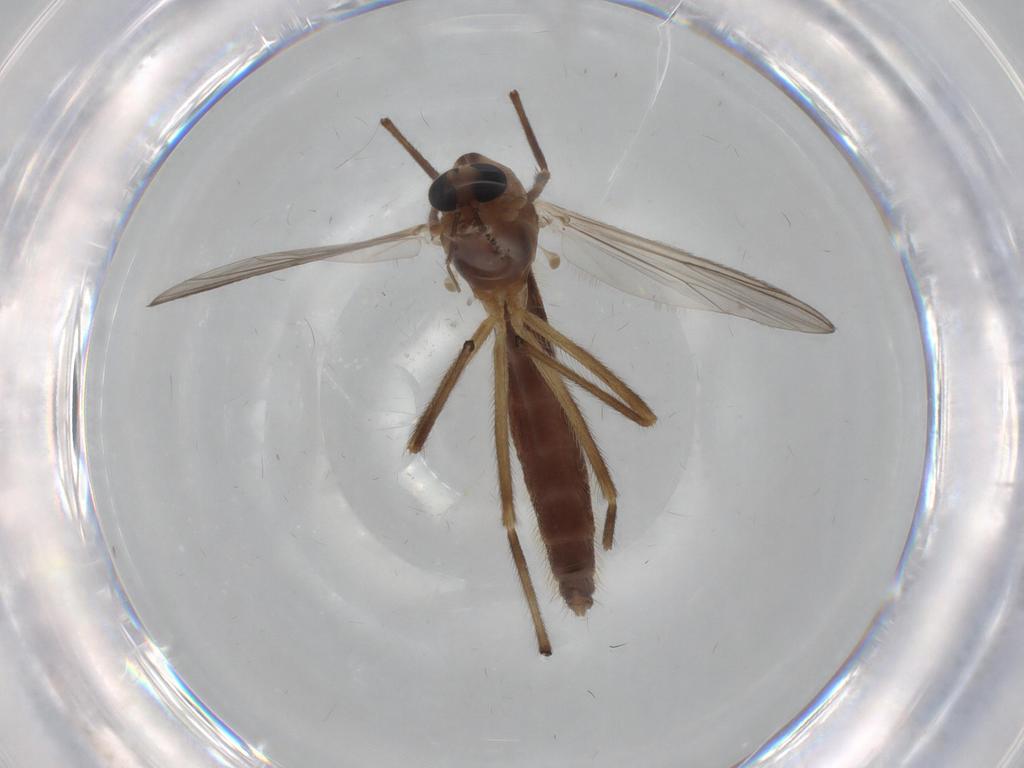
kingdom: Animalia
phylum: Arthropoda
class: Insecta
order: Diptera
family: Chironomidae
